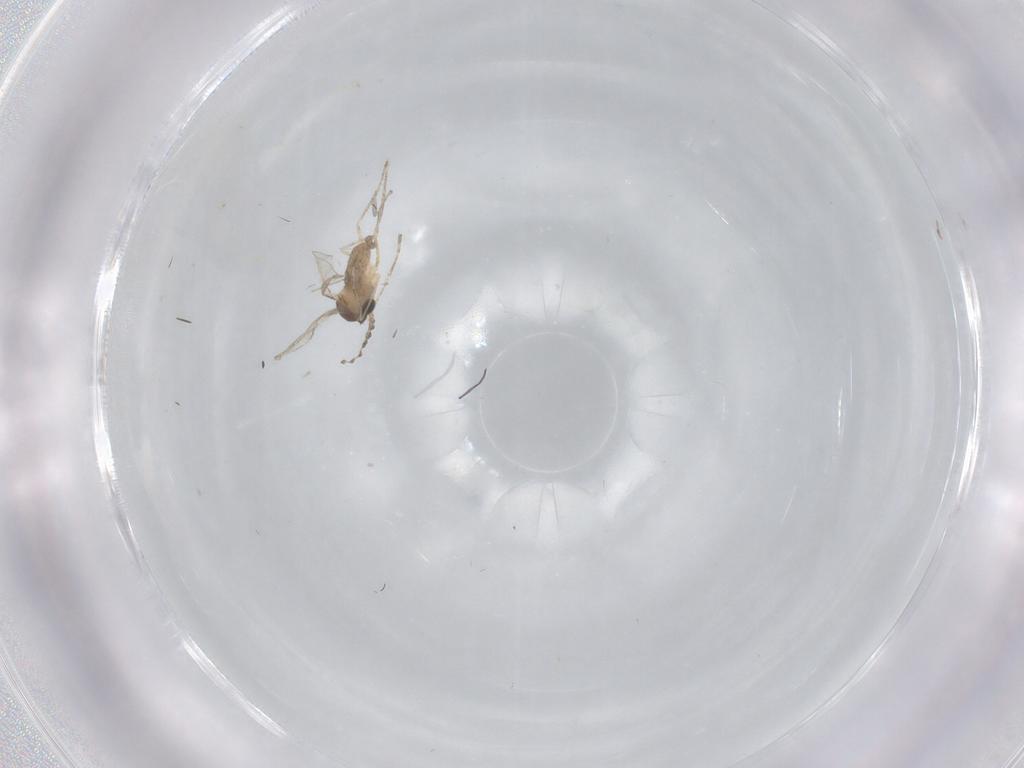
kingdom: Animalia
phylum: Arthropoda
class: Insecta
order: Diptera
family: Cecidomyiidae
